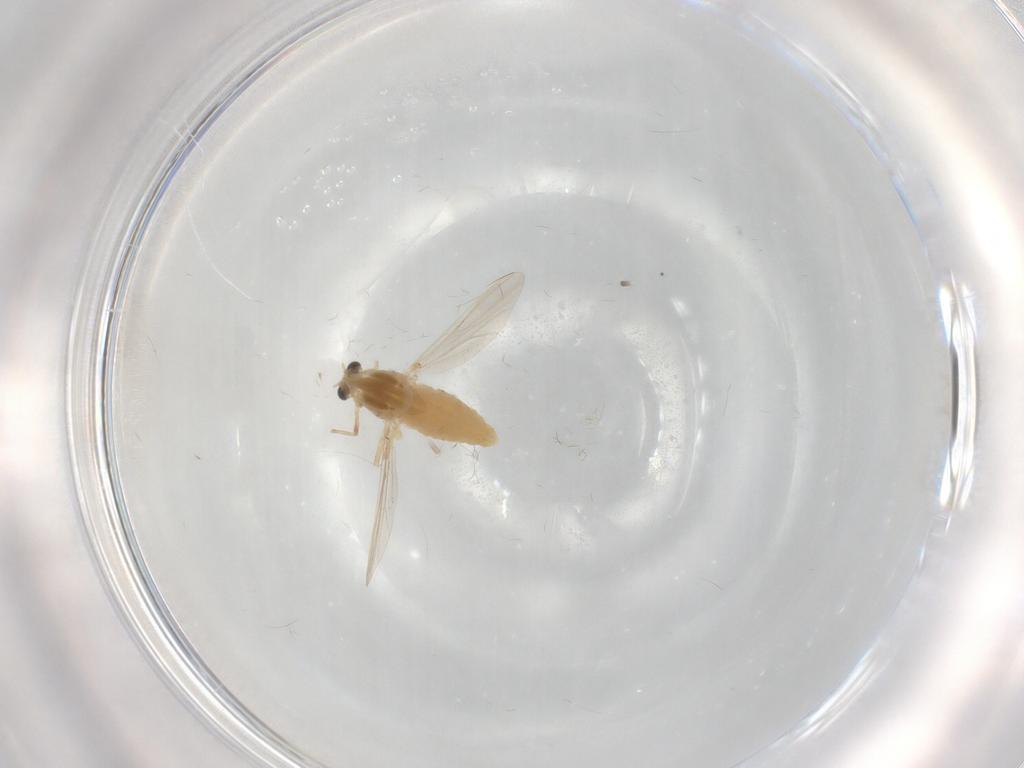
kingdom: Animalia
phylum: Arthropoda
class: Insecta
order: Diptera
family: Chironomidae
